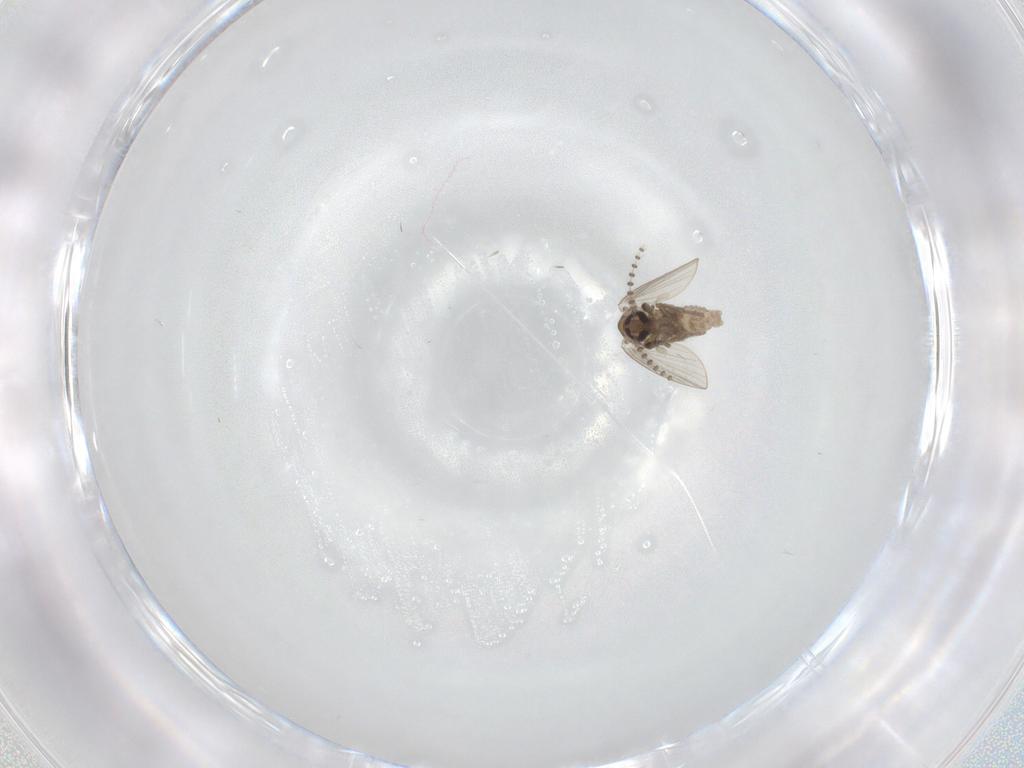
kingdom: Animalia
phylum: Arthropoda
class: Insecta
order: Diptera
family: Psychodidae
